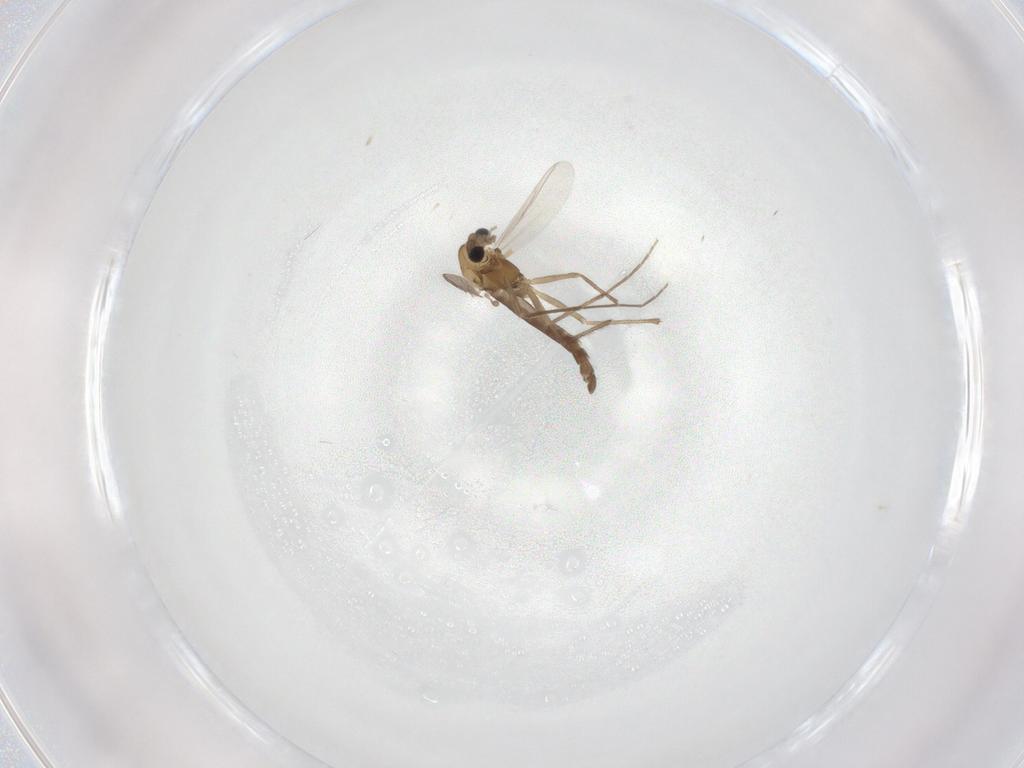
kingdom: Animalia
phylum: Arthropoda
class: Insecta
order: Diptera
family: Chironomidae
